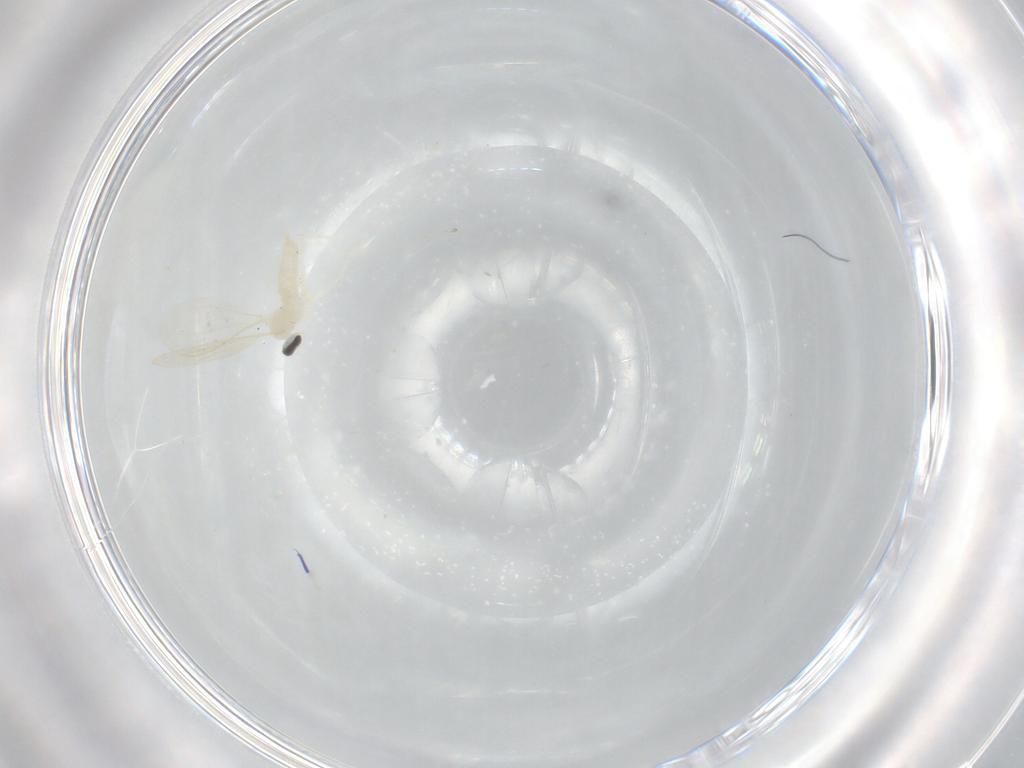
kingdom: Animalia
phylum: Arthropoda
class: Insecta
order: Diptera
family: Cecidomyiidae
